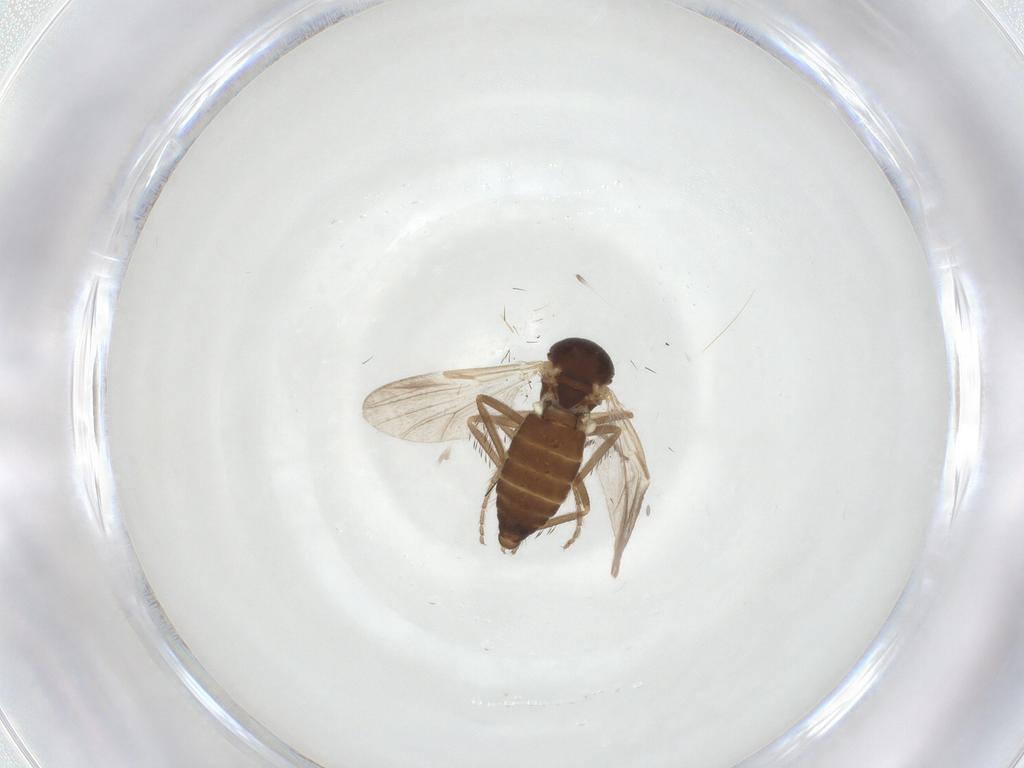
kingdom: Animalia
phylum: Arthropoda
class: Insecta
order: Diptera
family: Ceratopogonidae
